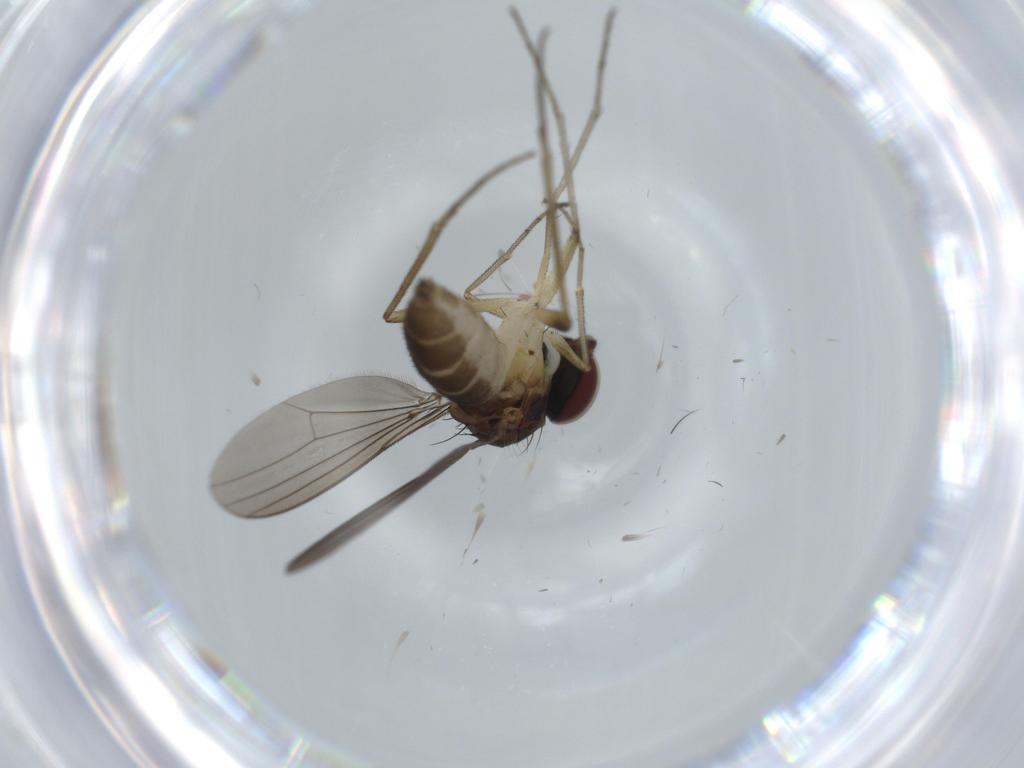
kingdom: Animalia
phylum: Arthropoda
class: Insecta
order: Diptera
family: Dolichopodidae
